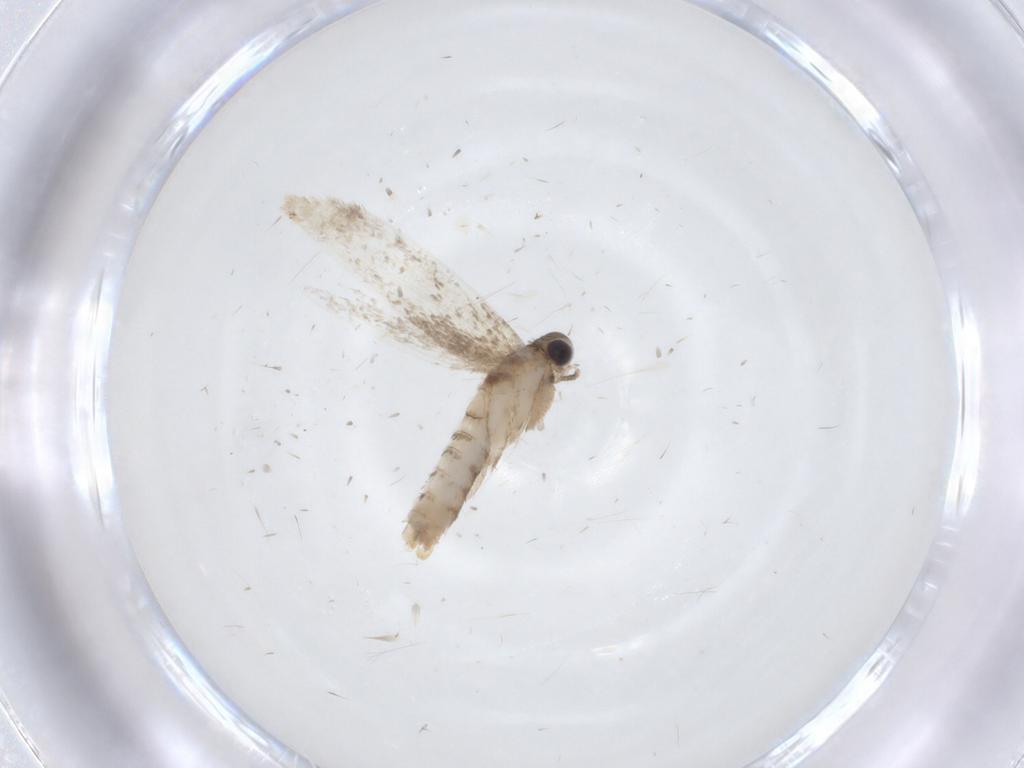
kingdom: Animalia
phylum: Arthropoda
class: Insecta
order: Lepidoptera
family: Dryadaulidae
